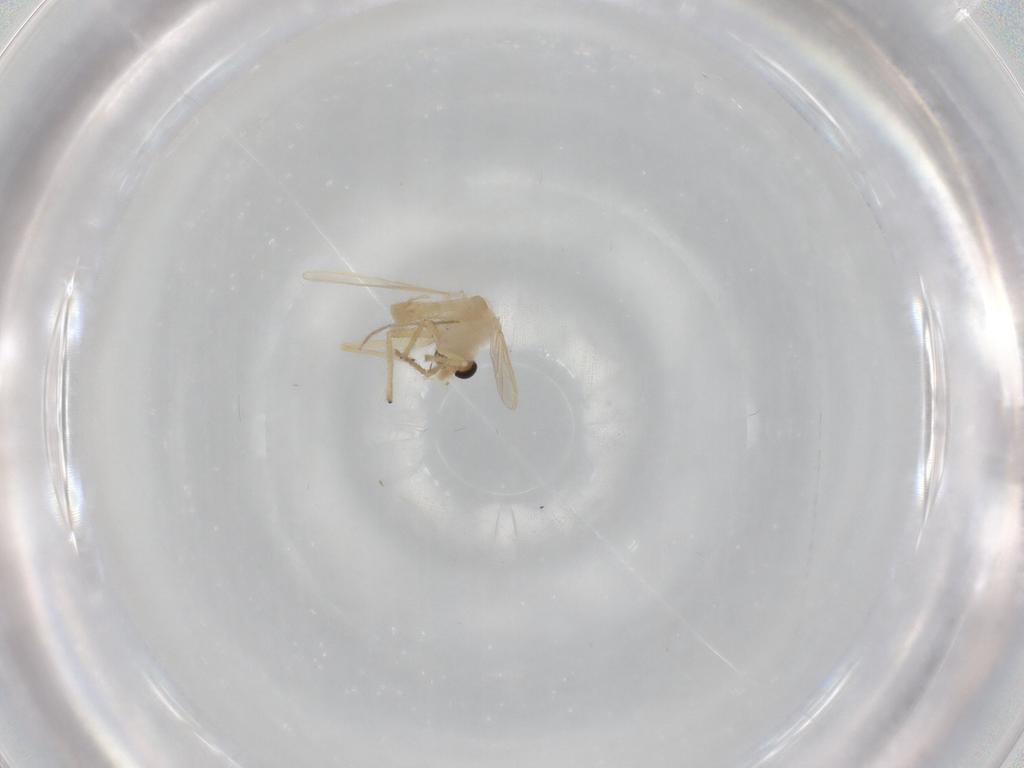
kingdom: Animalia
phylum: Arthropoda
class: Insecta
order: Diptera
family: Chironomidae
